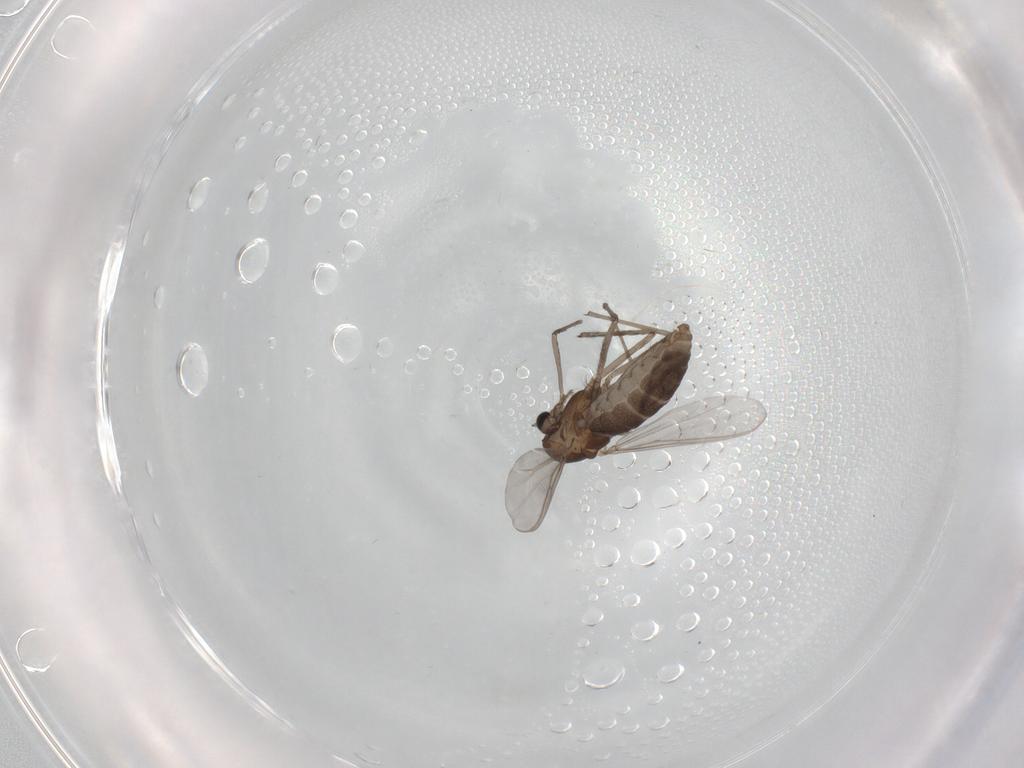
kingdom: Animalia
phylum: Arthropoda
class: Insecta
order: Diptera
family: Chironomidae
